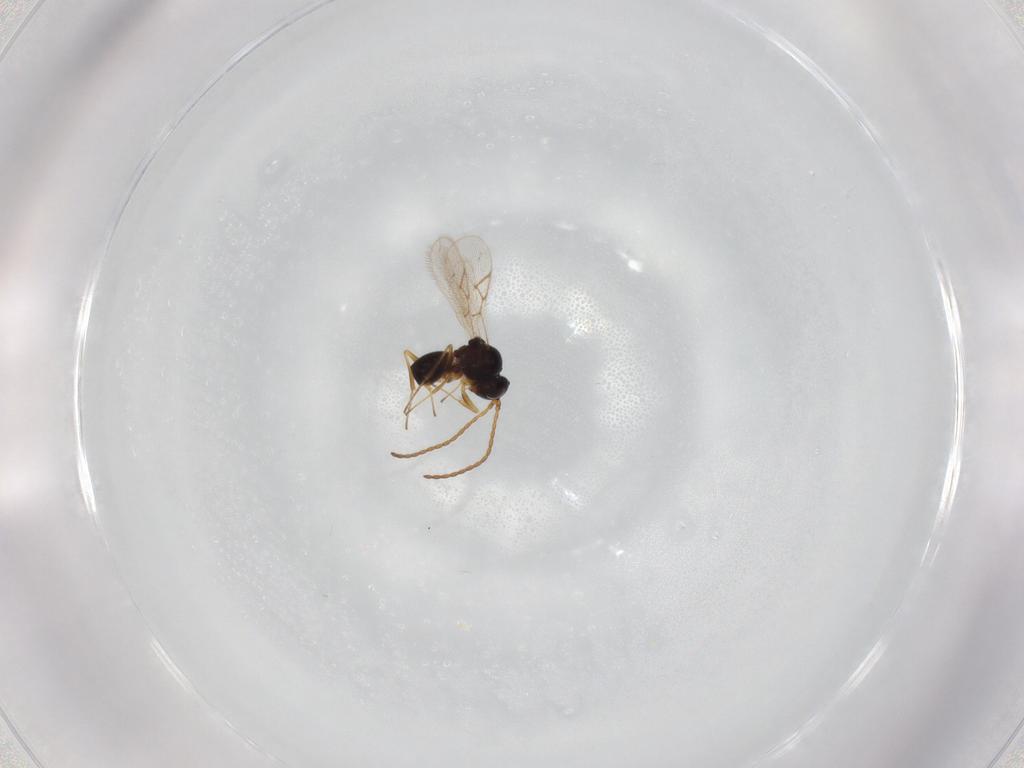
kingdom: Animalia
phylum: Arthropoda
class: Insecta
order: Hymenoptera
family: Figitidae
